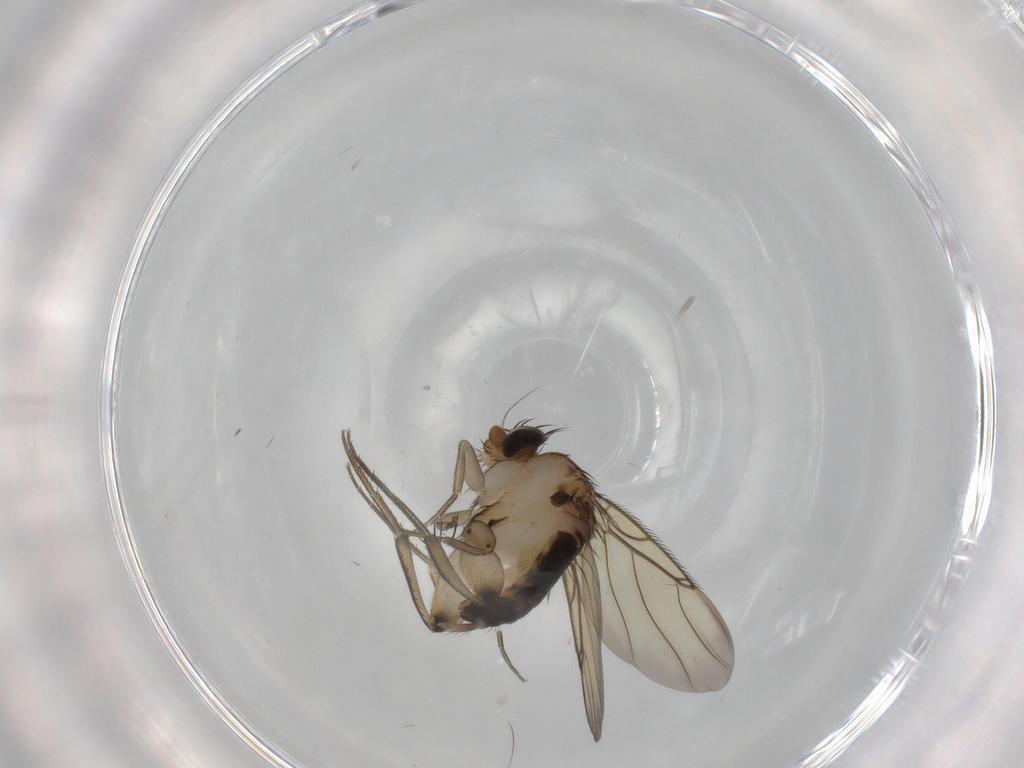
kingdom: Animalia
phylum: Arthropoda
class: Insecta
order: Diptera
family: Phoridae
